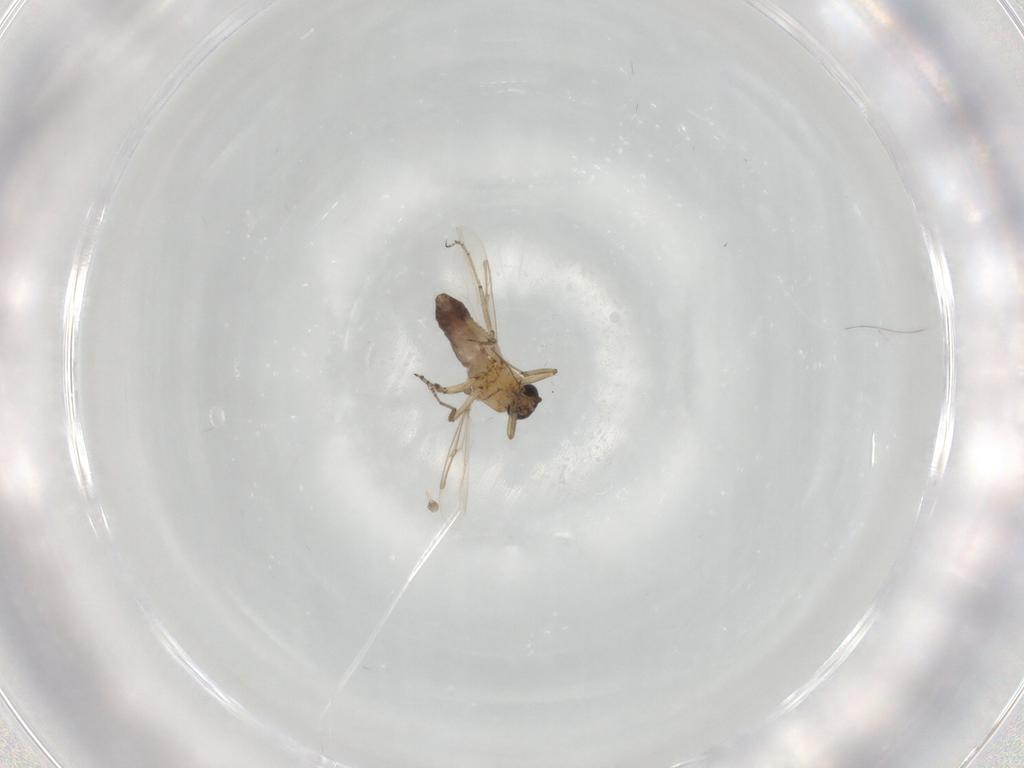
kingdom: Animalia
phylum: Arthropoda
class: Insecta
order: Diptera
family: Ceratopogonidae
